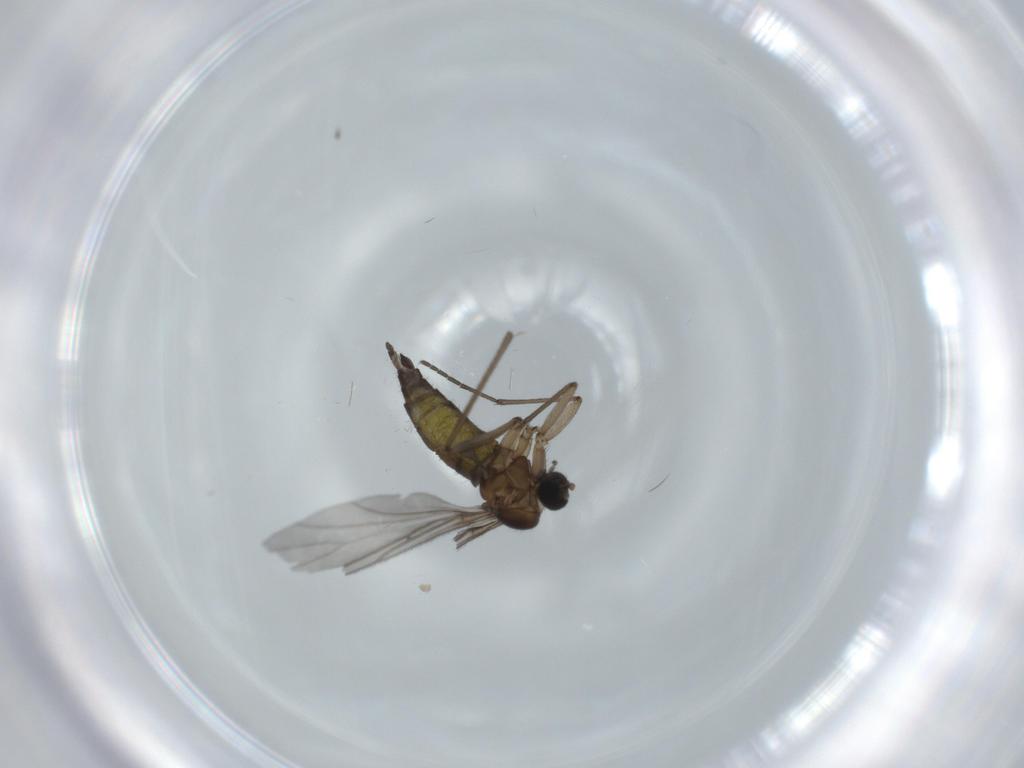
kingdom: Animalia
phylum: Arthropoda
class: Insecta
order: Diptera
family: Sciaridae
